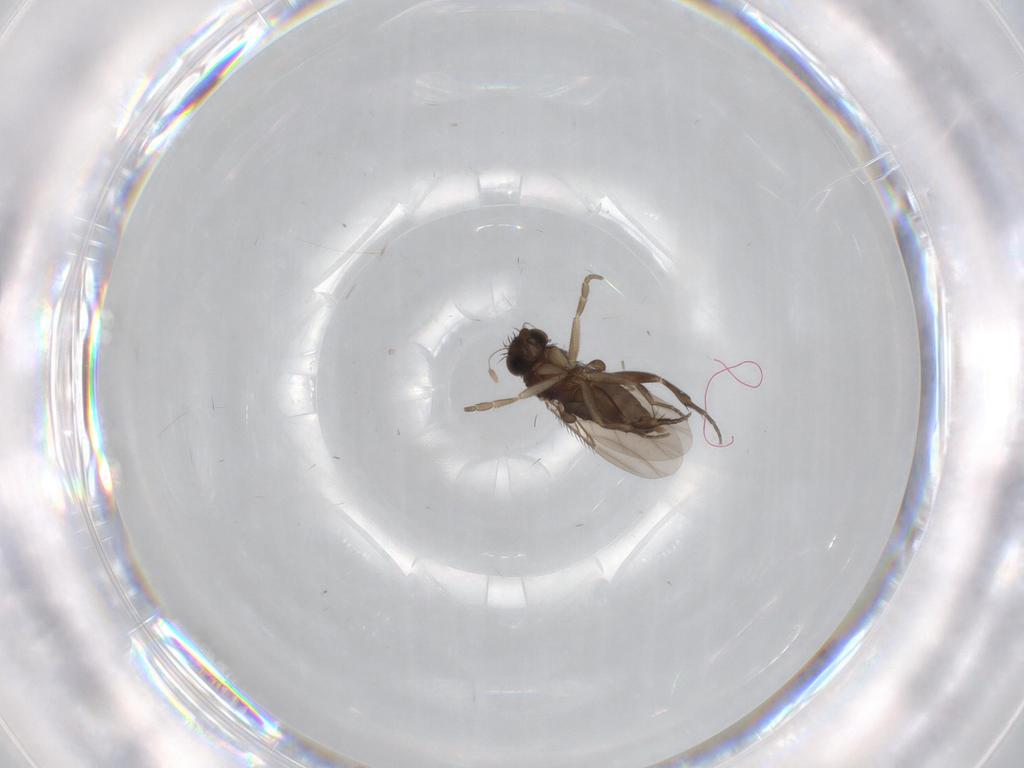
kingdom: Animalia
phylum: Arthropoda
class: Insecta
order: Diptera
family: Phoridae
